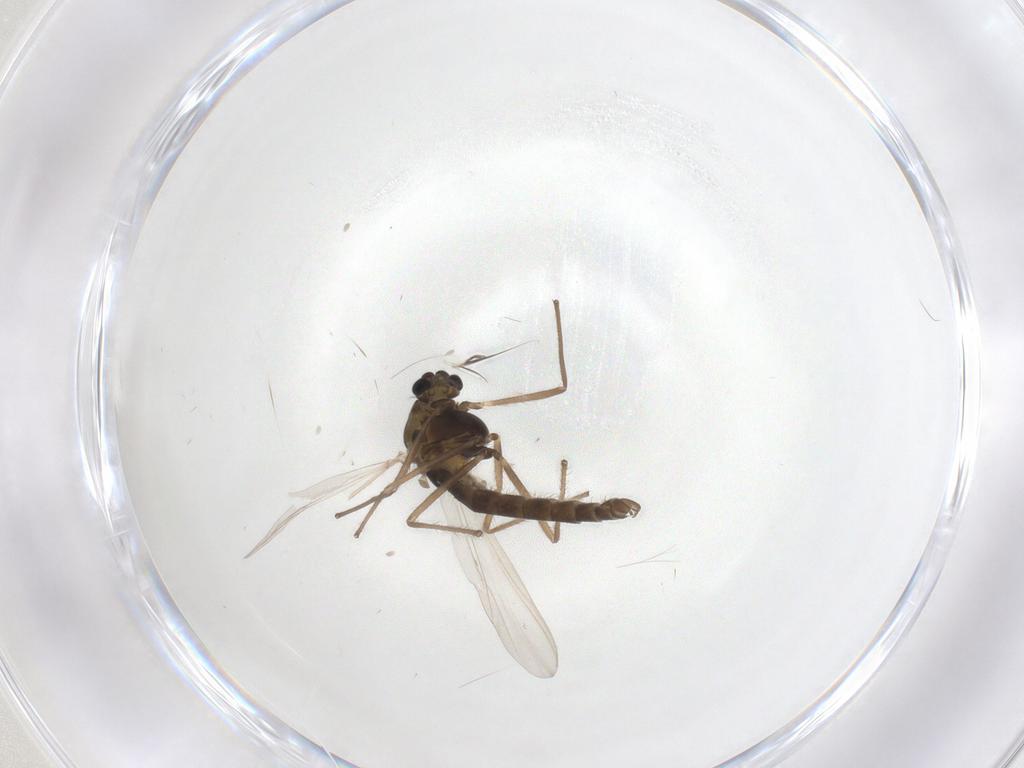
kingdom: Animalia
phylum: Arthropoda
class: Insecta
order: Diptera
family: Chironomidae
